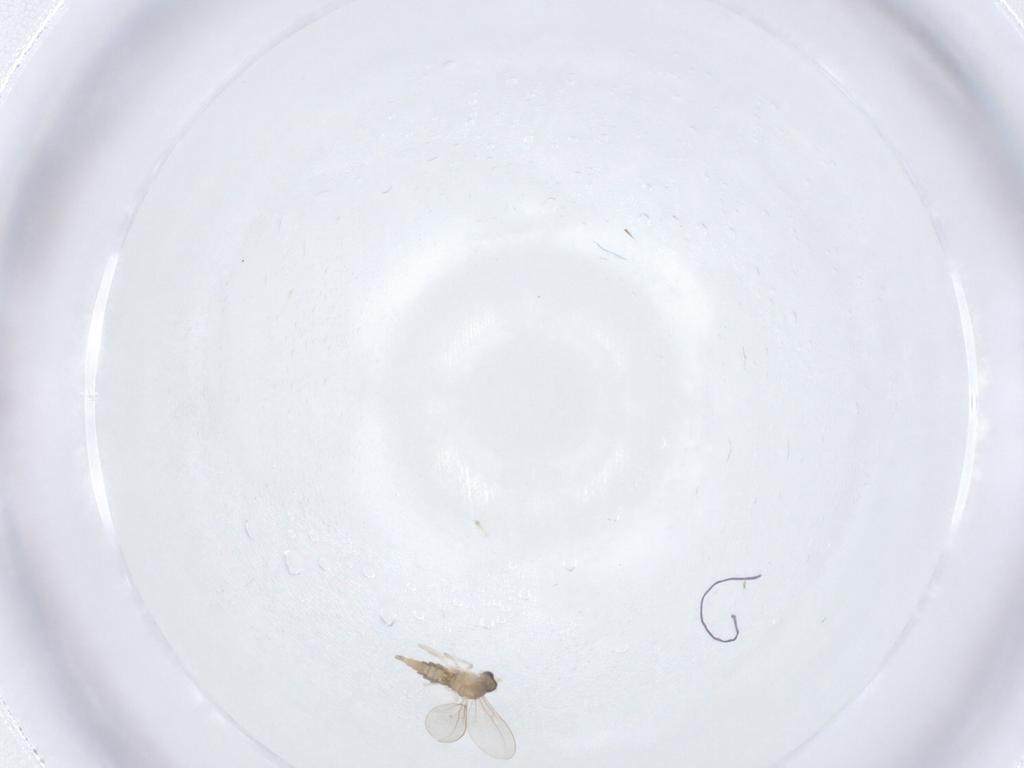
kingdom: Animalia
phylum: Arthropoda
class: Insecta
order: Diptera
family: Cecidomyiidae
